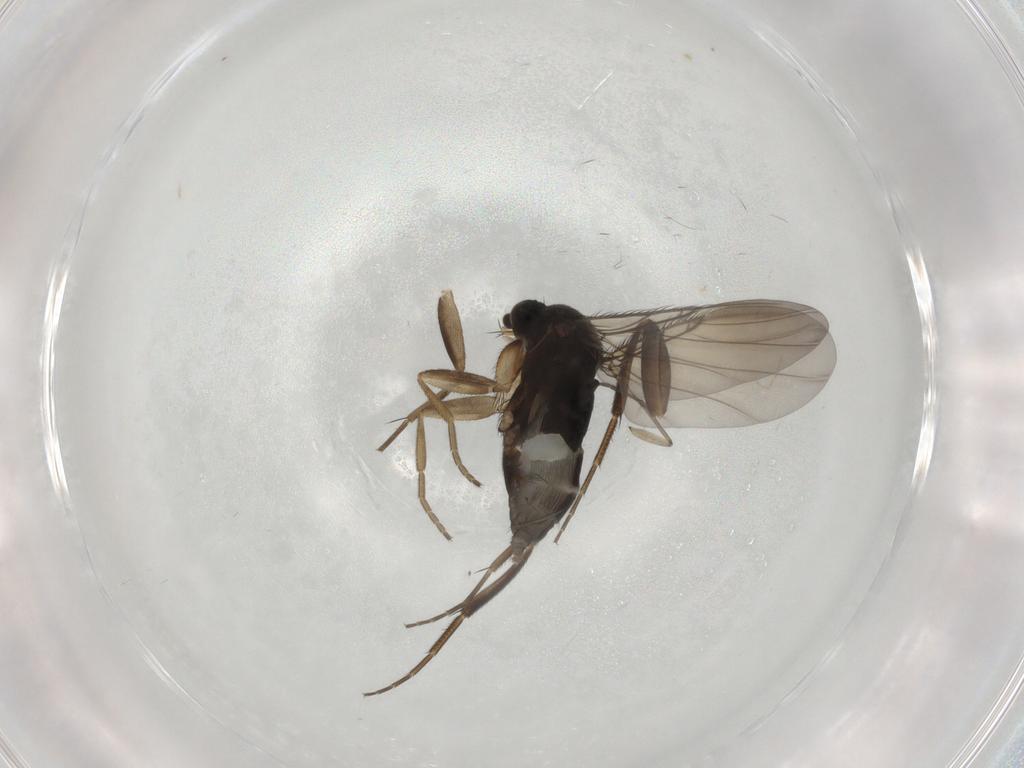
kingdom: Animalia
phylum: Arthropoda
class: Insecta
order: Diptera
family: Phoridae
